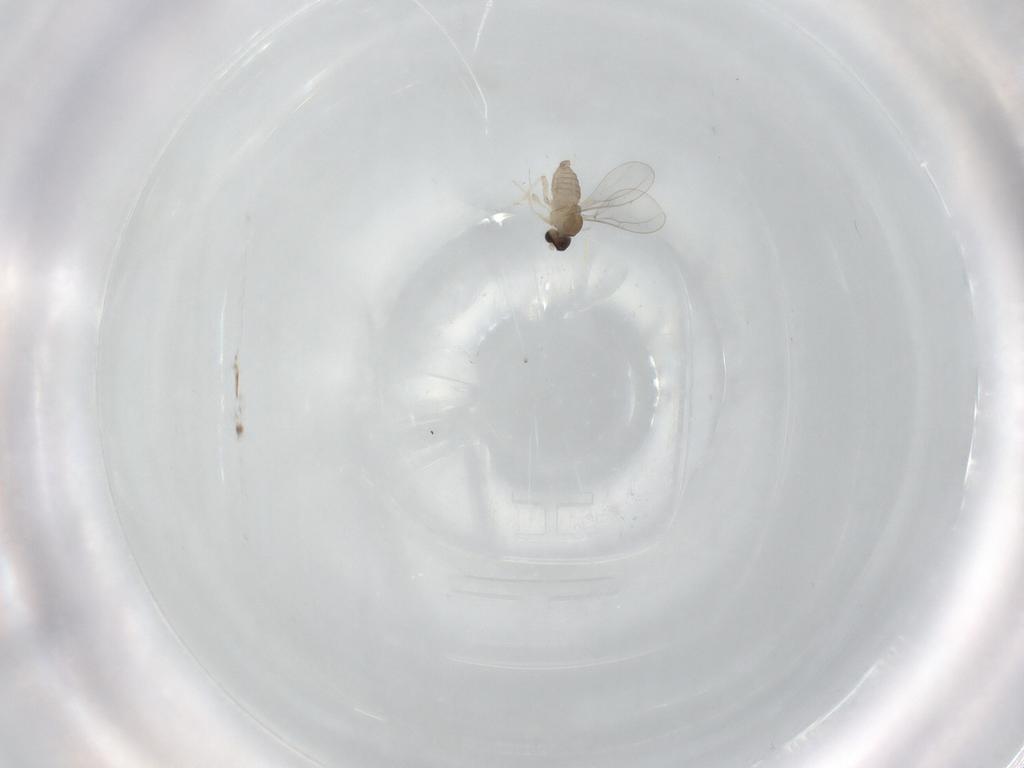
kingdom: Animalia
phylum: Arthropoda
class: Insecta
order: Diptera
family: Cecidomyiidae
